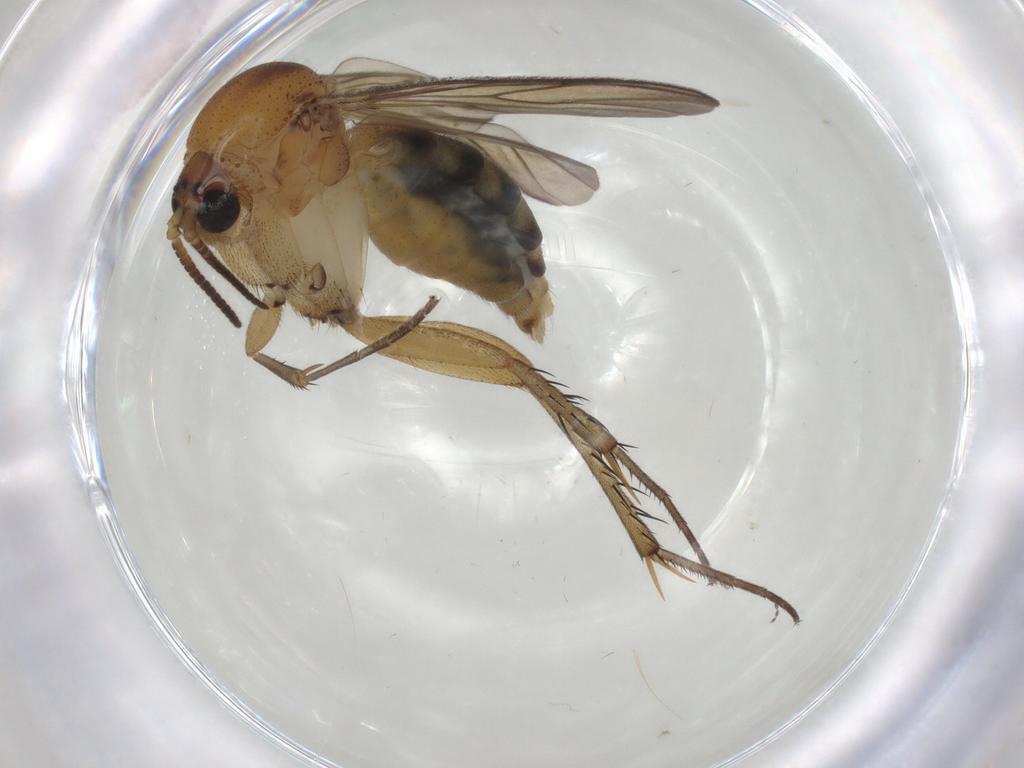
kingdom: Animalia
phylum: Arthropoda
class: Insecta
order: Diptera
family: Mycetophilidae
